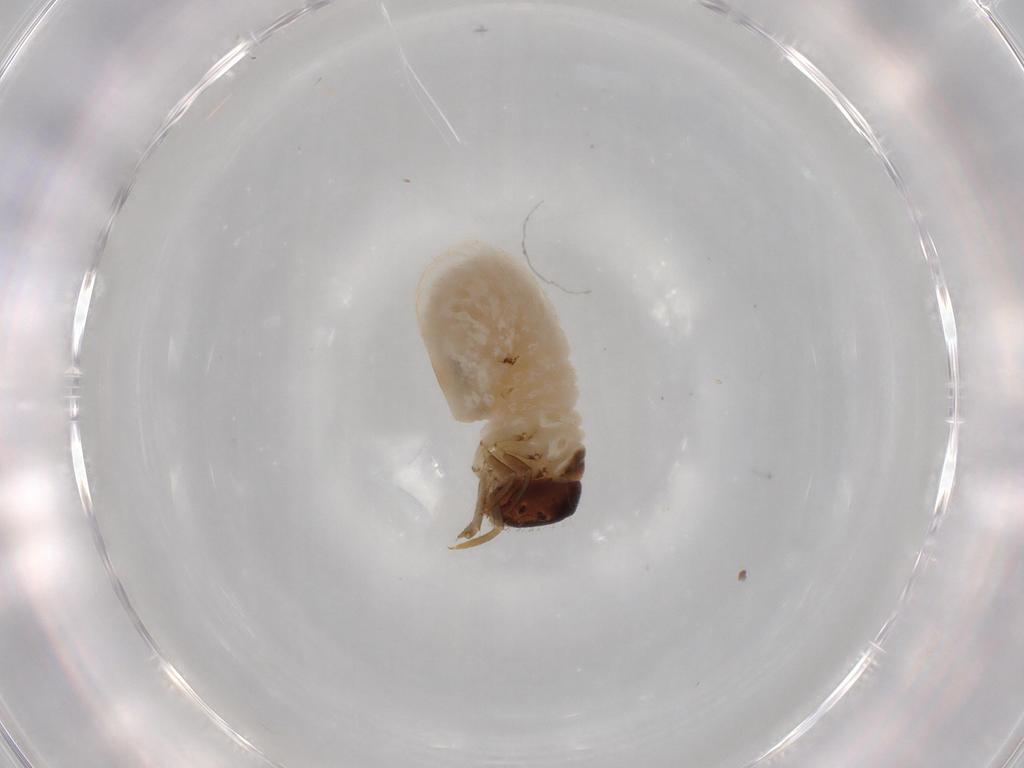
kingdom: Animalia
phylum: Arthropoda
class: Insecta
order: Coleoptera
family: Chrysomelidae
